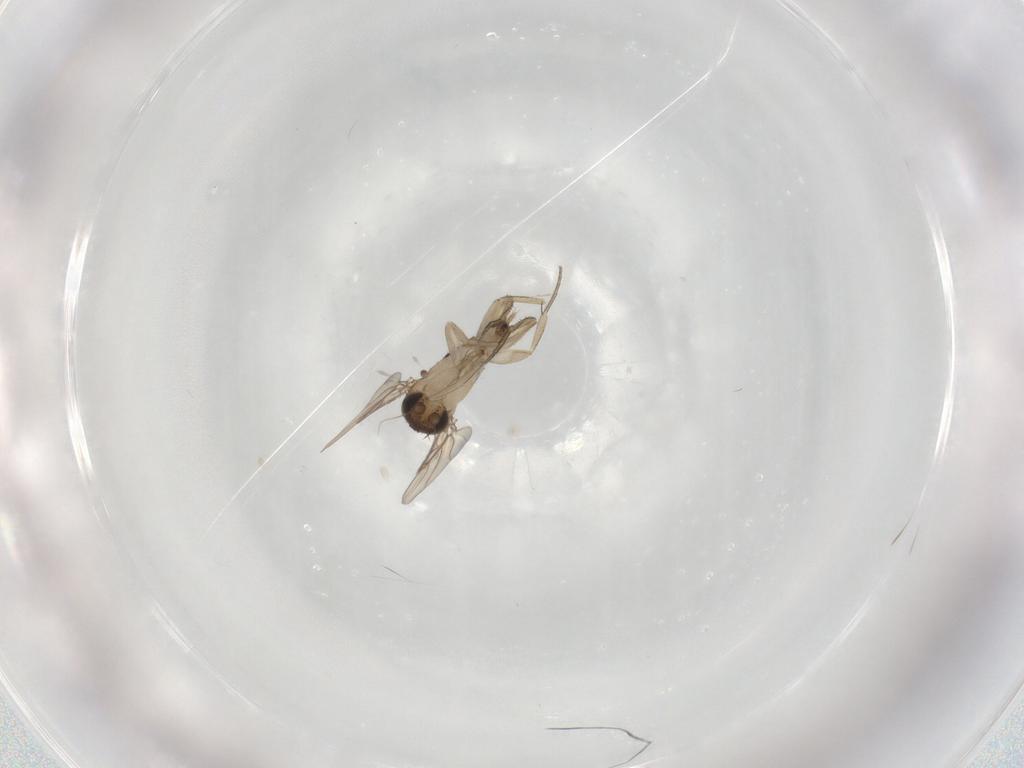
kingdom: Animalia
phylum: Arthropoda
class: Insecta
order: Diptera
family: Phoridae
